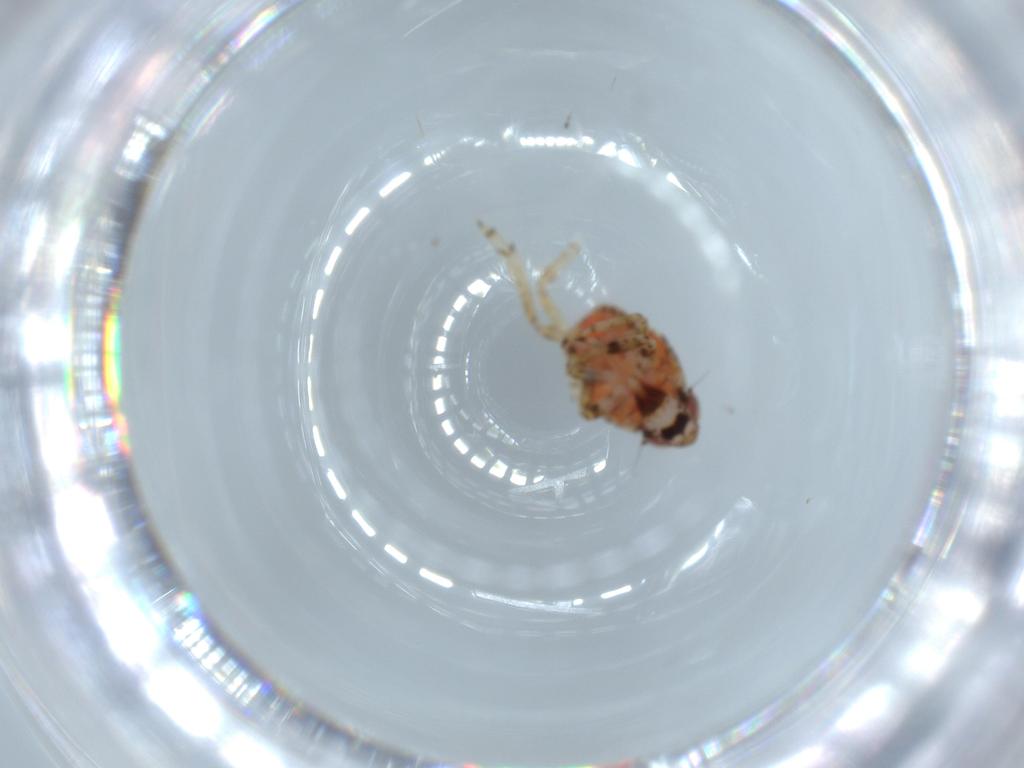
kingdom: Animalia
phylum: Arthropoda
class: Insecta
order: Hemiptera
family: Issidae
